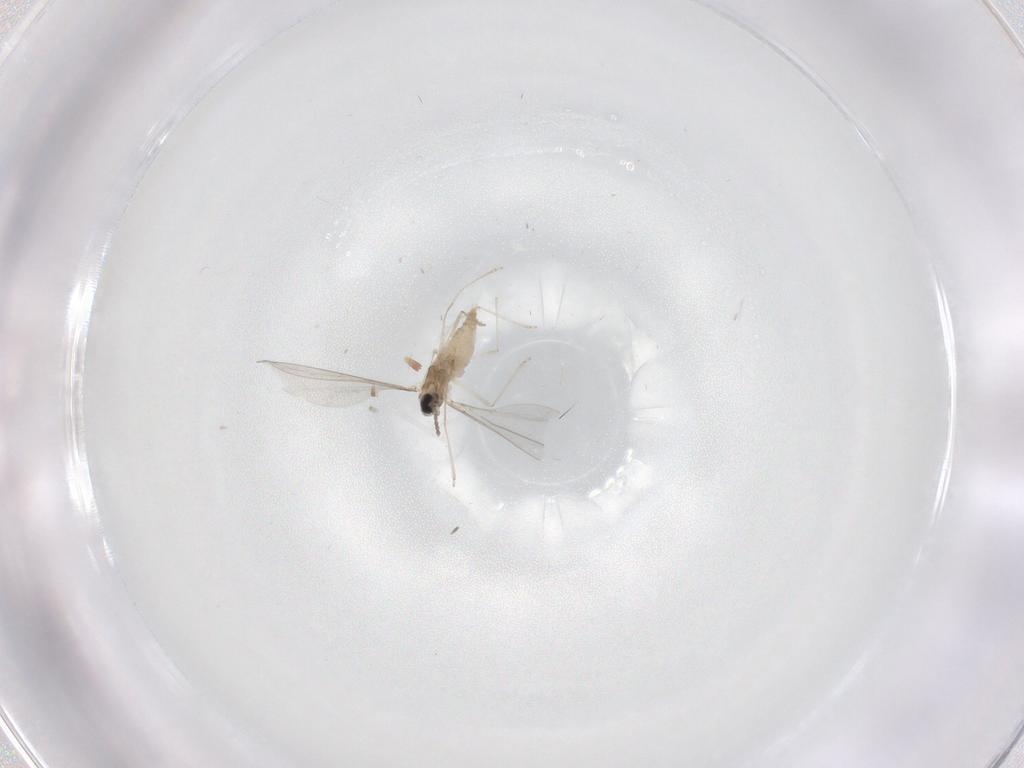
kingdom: Animalia
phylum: Arthropoda
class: Insecta
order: Diptera
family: Cecidomyiidae
